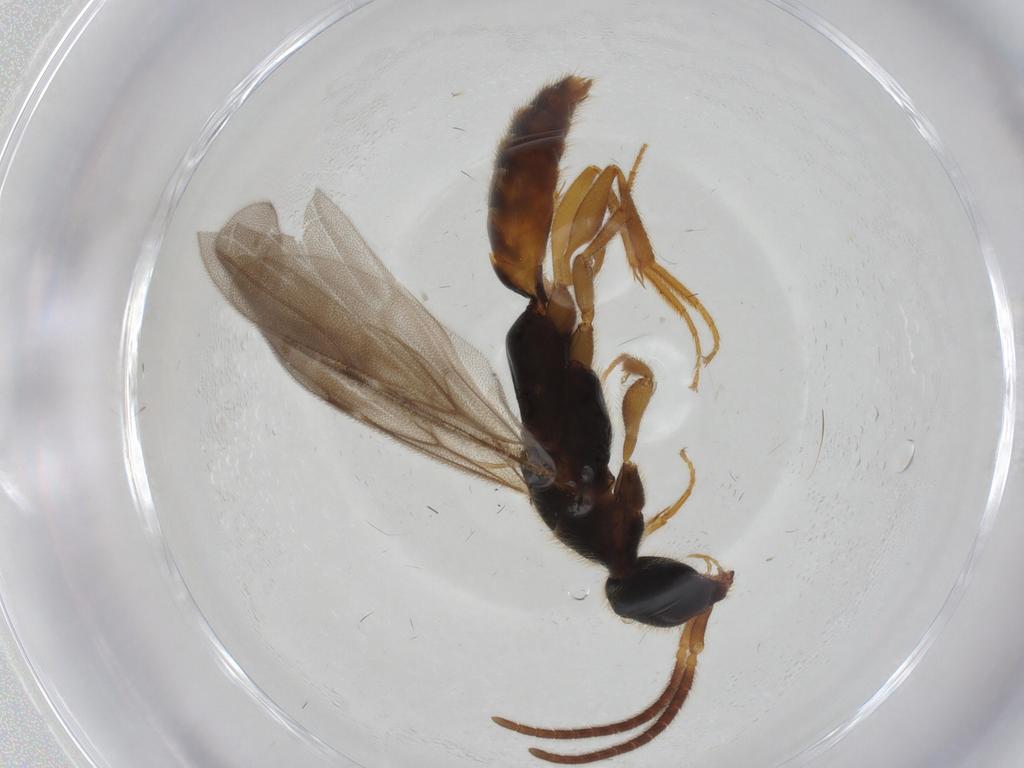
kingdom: Animalia
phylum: Arthropoda
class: Insecta
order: Hymenoptera
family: Bethylidae
